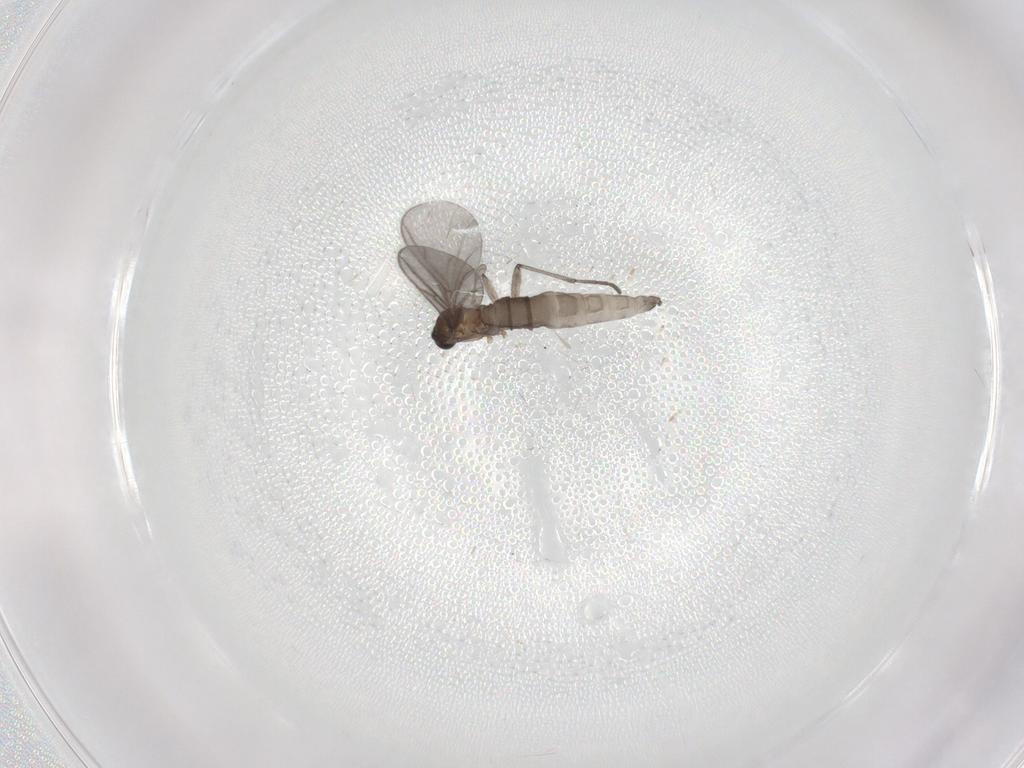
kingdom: Animalia
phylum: Arthropoda
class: Insecta
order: Diptera
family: Sciaridae
